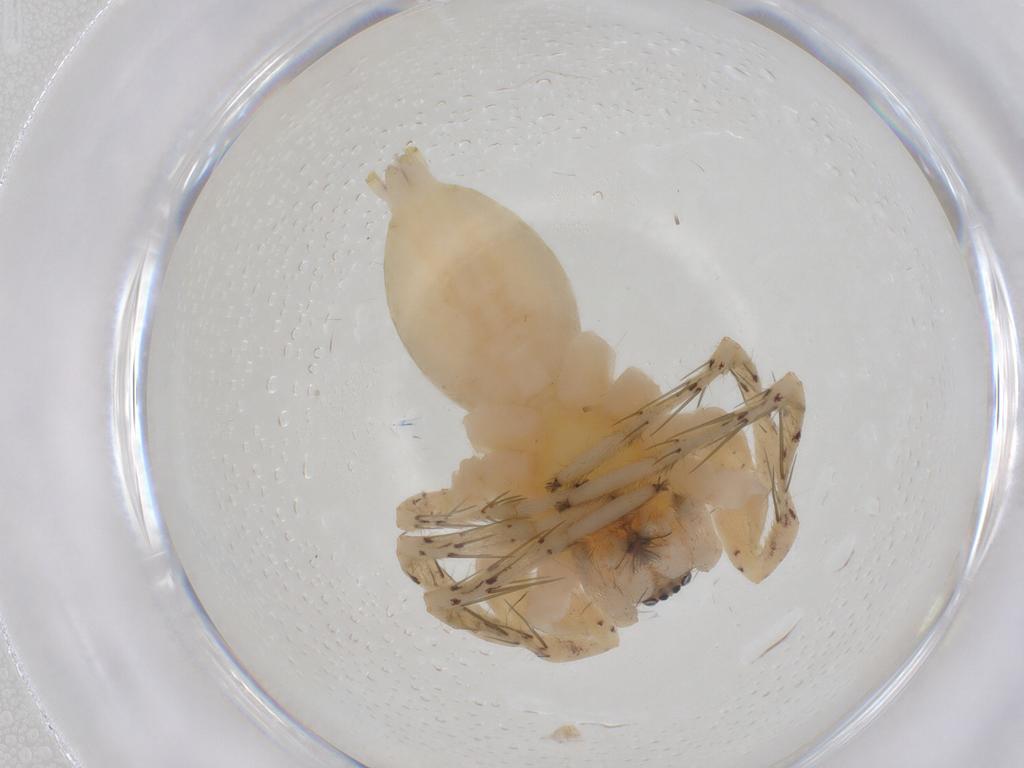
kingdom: Animalia
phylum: Arthropoda
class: Arachnida
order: Araneae
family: Anyphaenidae
